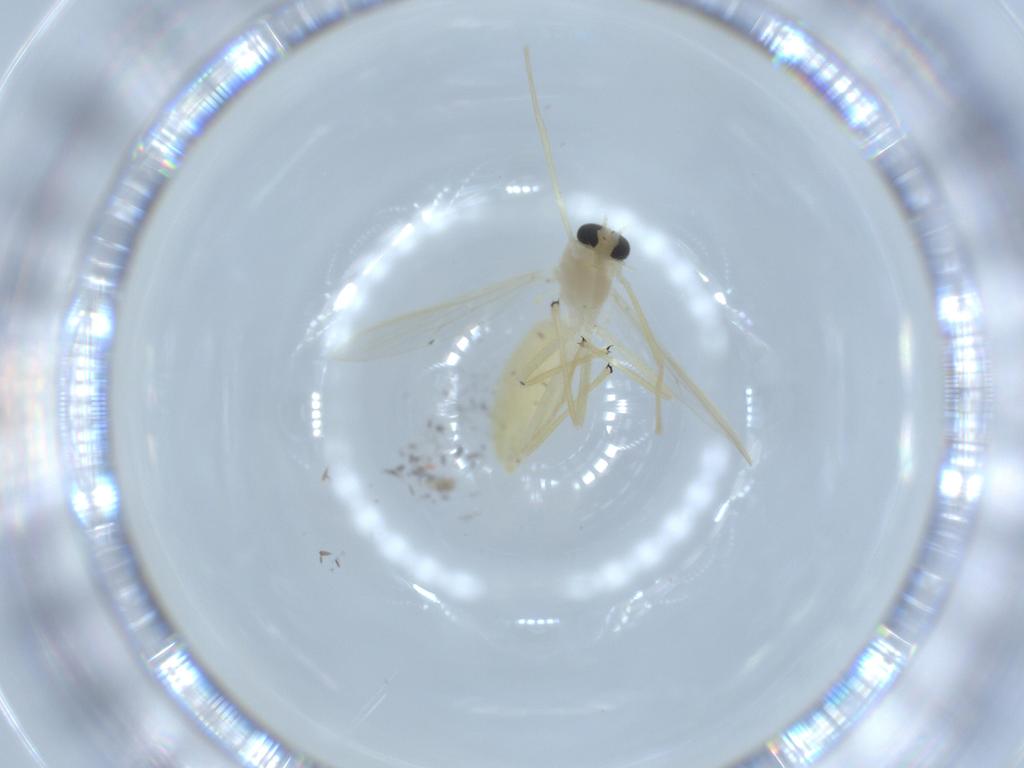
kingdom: Animalia
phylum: Arthropoda
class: Insecta
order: Diptera
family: Chironomidae
